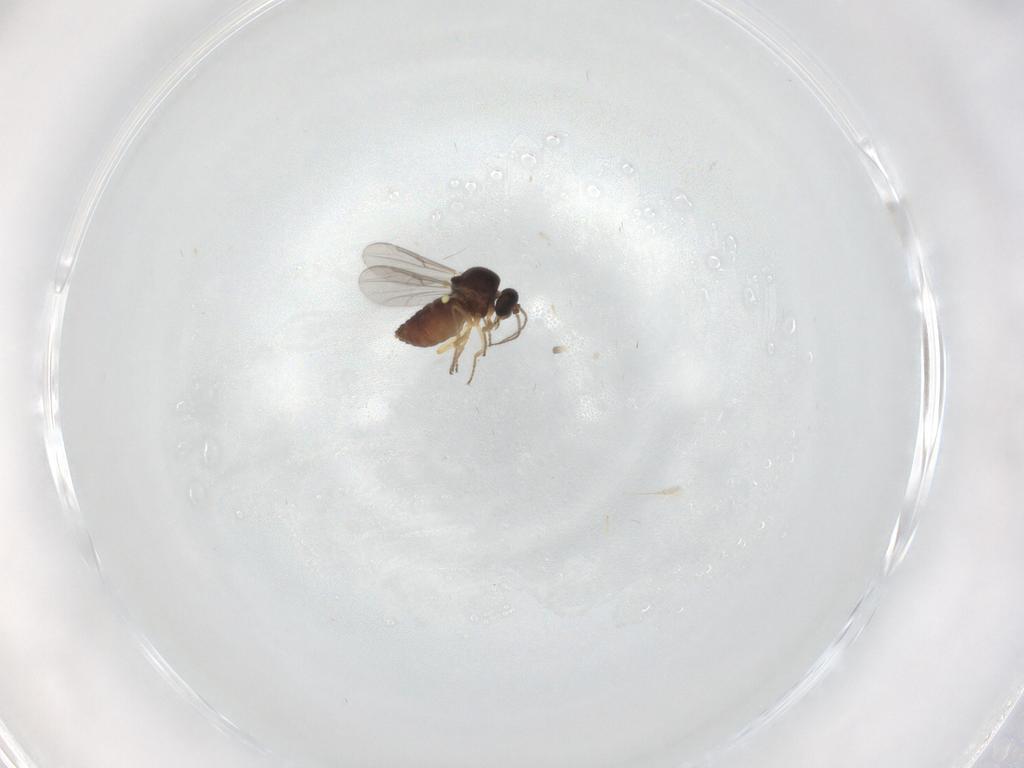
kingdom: Animalia
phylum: Arthropoda
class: Insecta
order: Diptera
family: Ceratopogonidae
